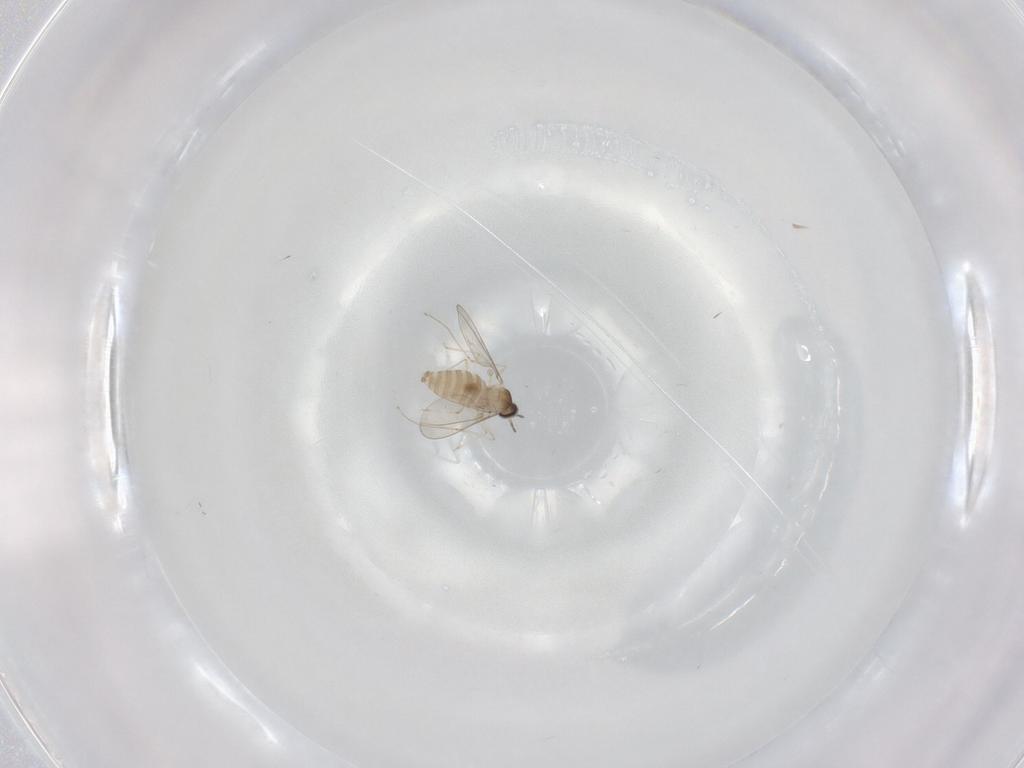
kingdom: Animalia
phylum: Arthropoda
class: Insecta
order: Diptera
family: Cecidomyiidae
